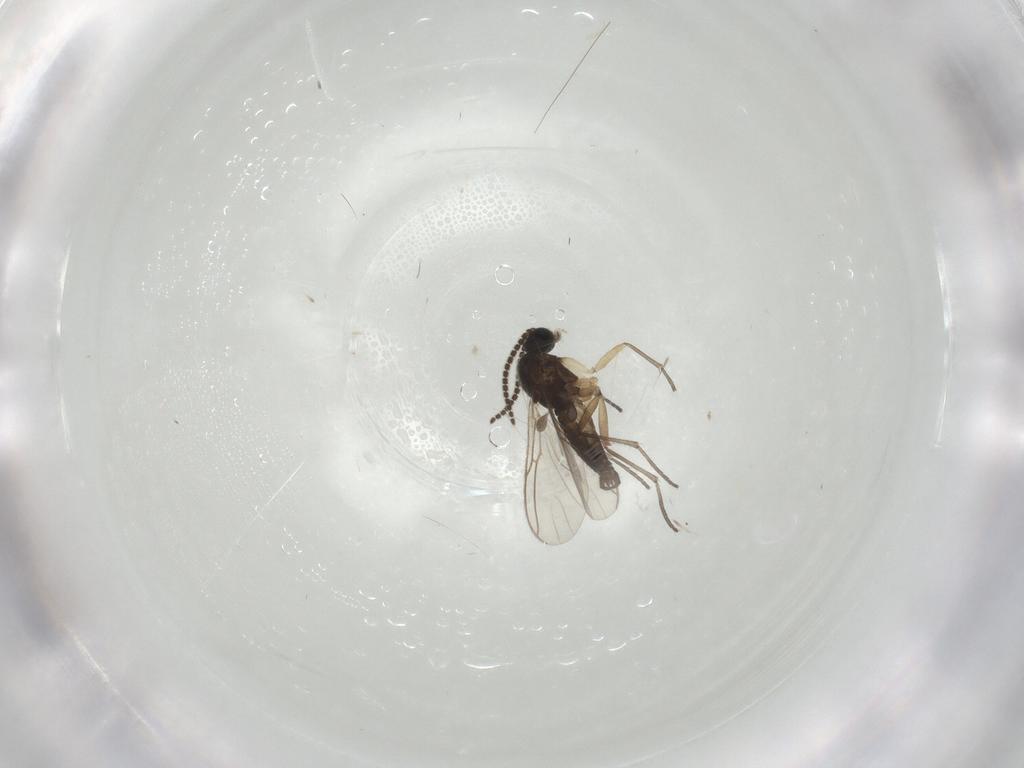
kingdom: Animalia
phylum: Arthropoda
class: Insecta
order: Diptera
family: Sciaridae
